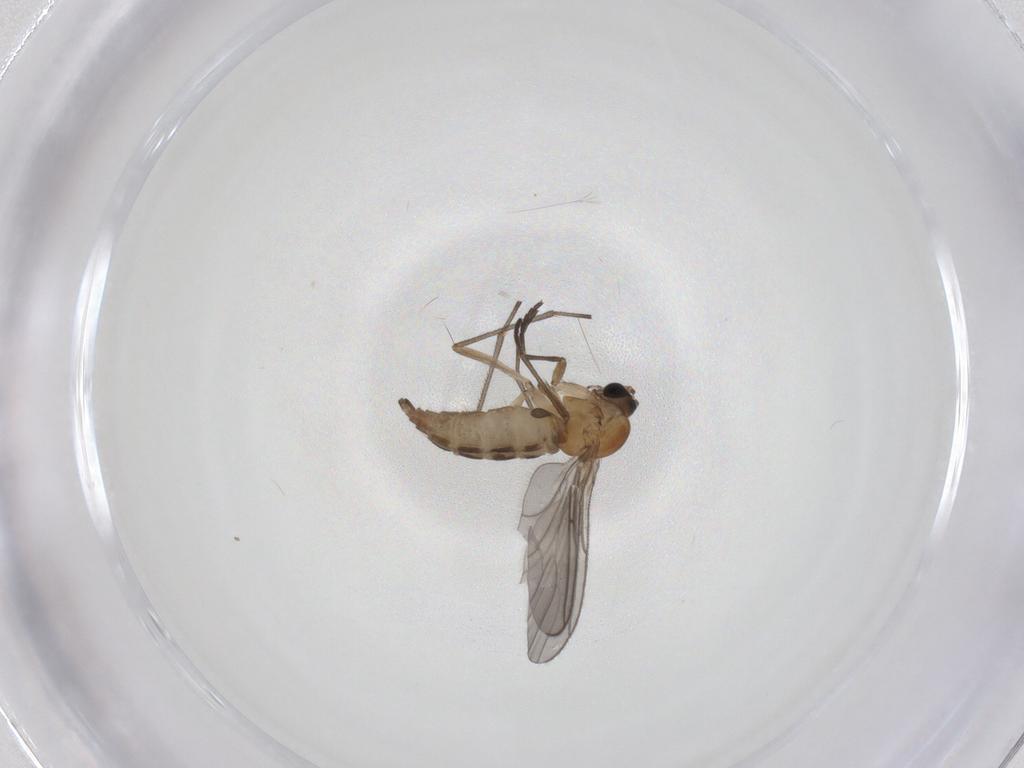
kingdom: Animalia
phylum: Arthropoda
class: Insecta
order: Diptera
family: Sciaridae
